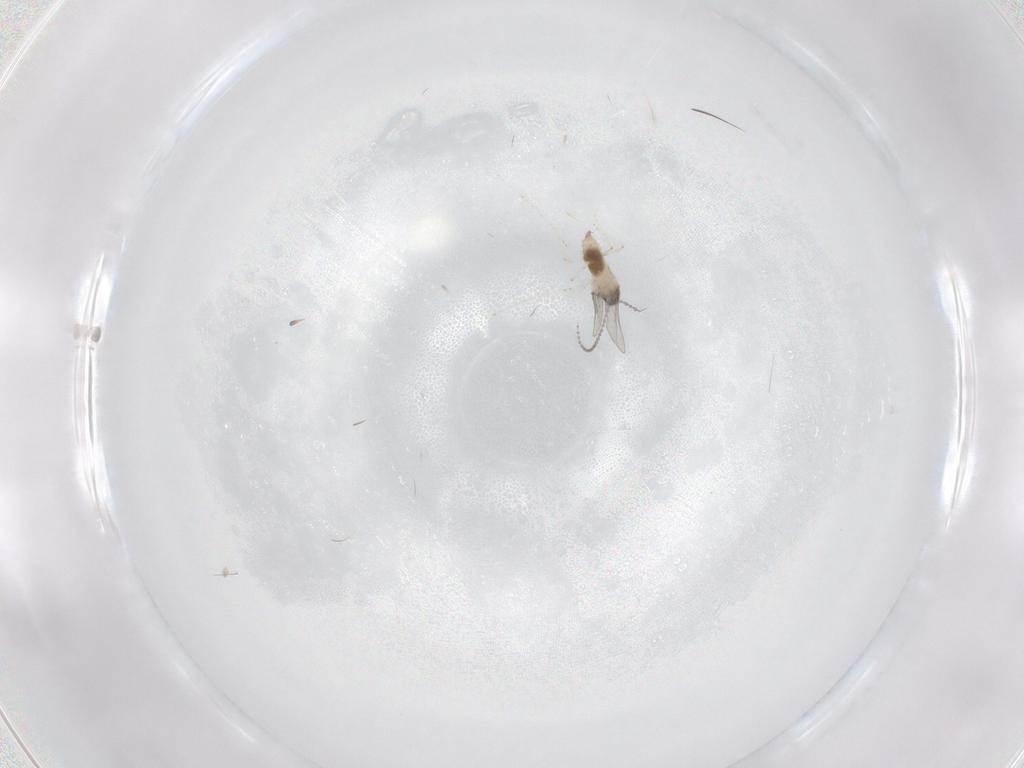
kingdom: Animalia
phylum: Arthropoda
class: Insecta
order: Diptera
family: Cecidomyiidae
